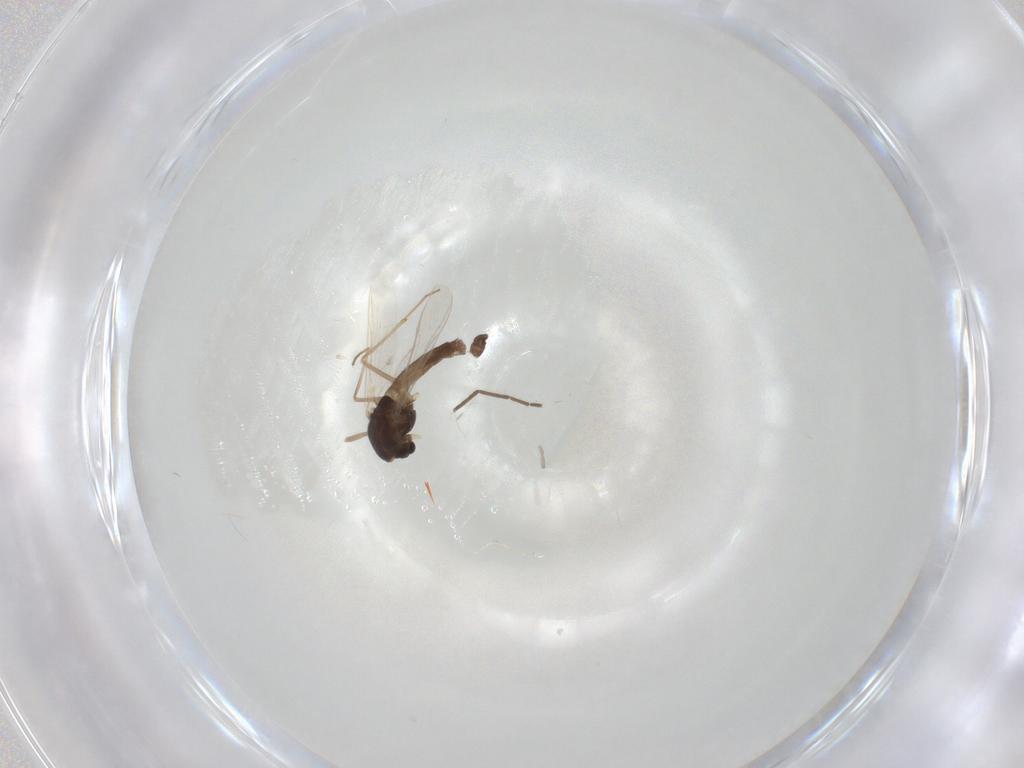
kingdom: Animalia
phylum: Arthropoda
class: Insecta
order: Diptera
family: Chironomidae
